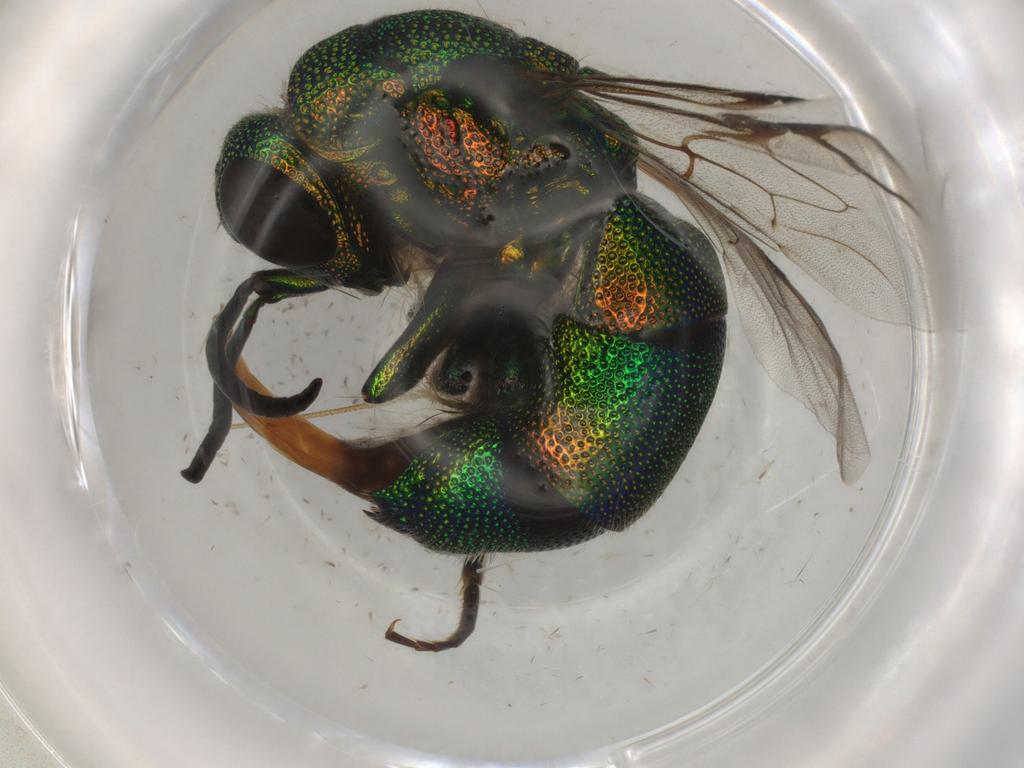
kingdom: Animalia
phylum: Arthropoda
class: Insecta
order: Hymenoptera
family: Chrysididae
